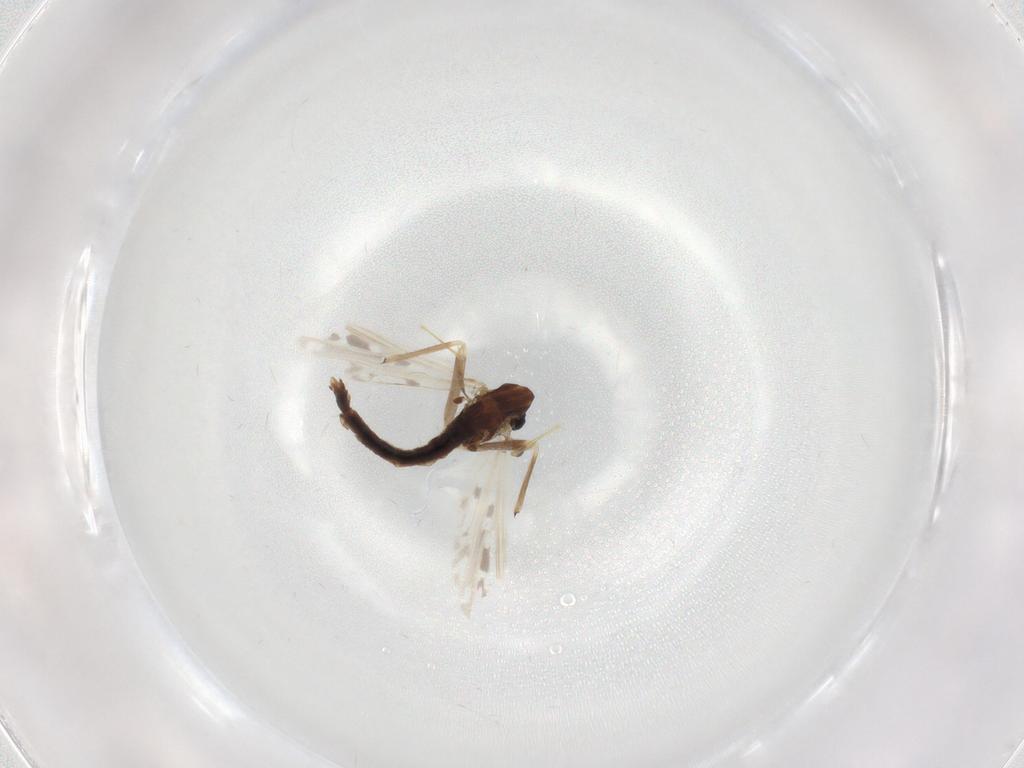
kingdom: Animalia
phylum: Arthropoda
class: Insecta
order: Diptera
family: Chironomidae
